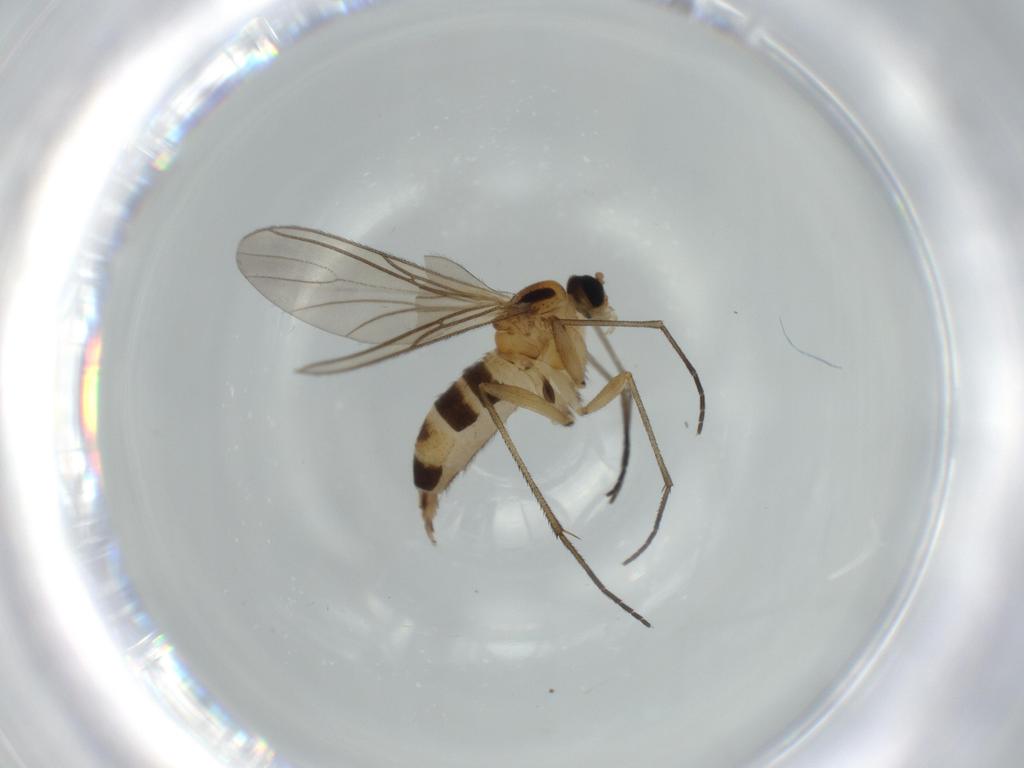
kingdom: Animalia
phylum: Arthropoda
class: Insecta
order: Diptera
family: Sciaridae
